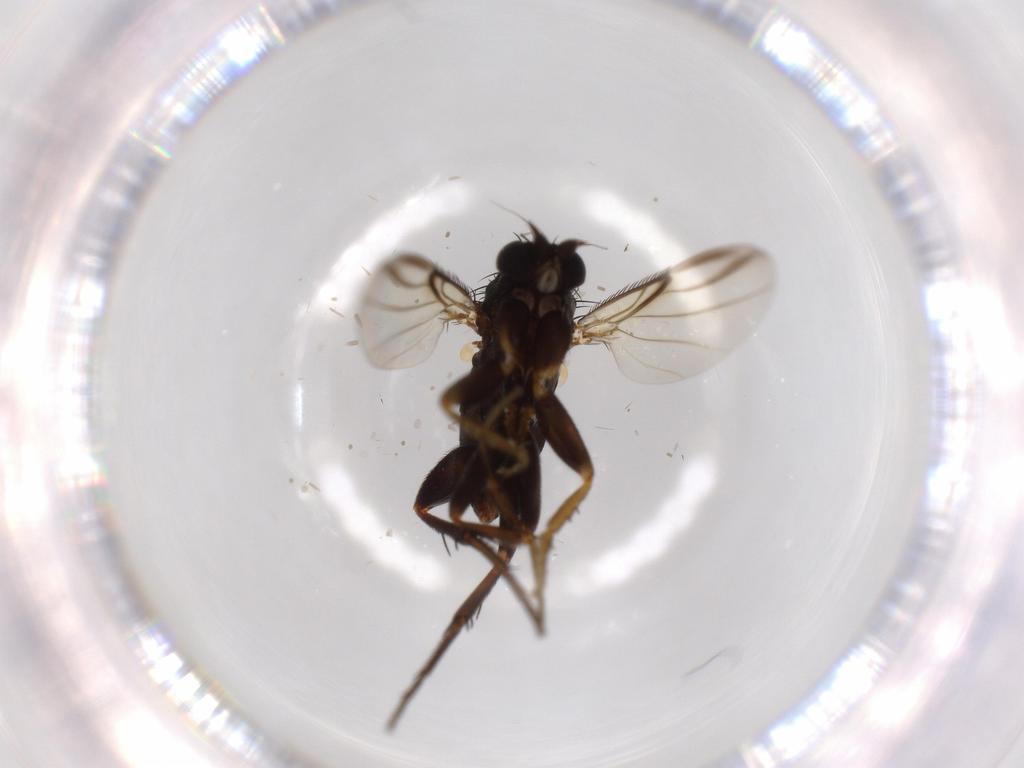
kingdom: Animalia
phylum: Arthropoda
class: Insecta
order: Diptera
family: Phoridae
